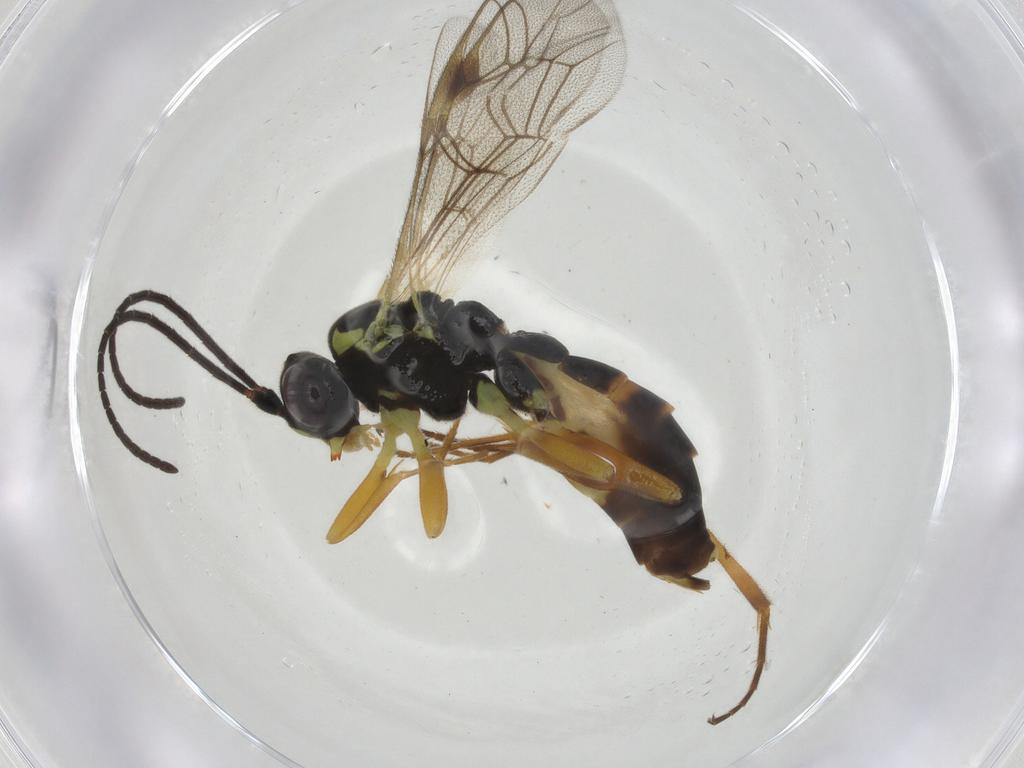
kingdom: Animalia
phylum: Arthropoda
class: Insecta
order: Hymenoptera
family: Ichneumonidae
